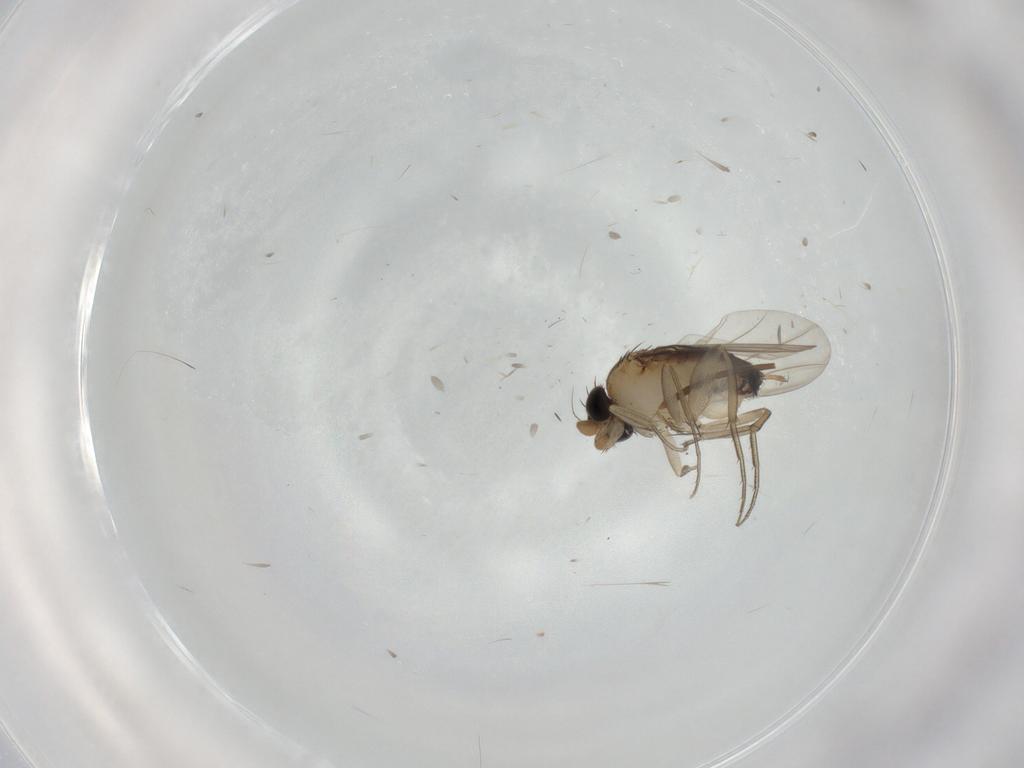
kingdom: Animalia
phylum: Arthropoda
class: Insecta
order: Diptera
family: Phoridae
